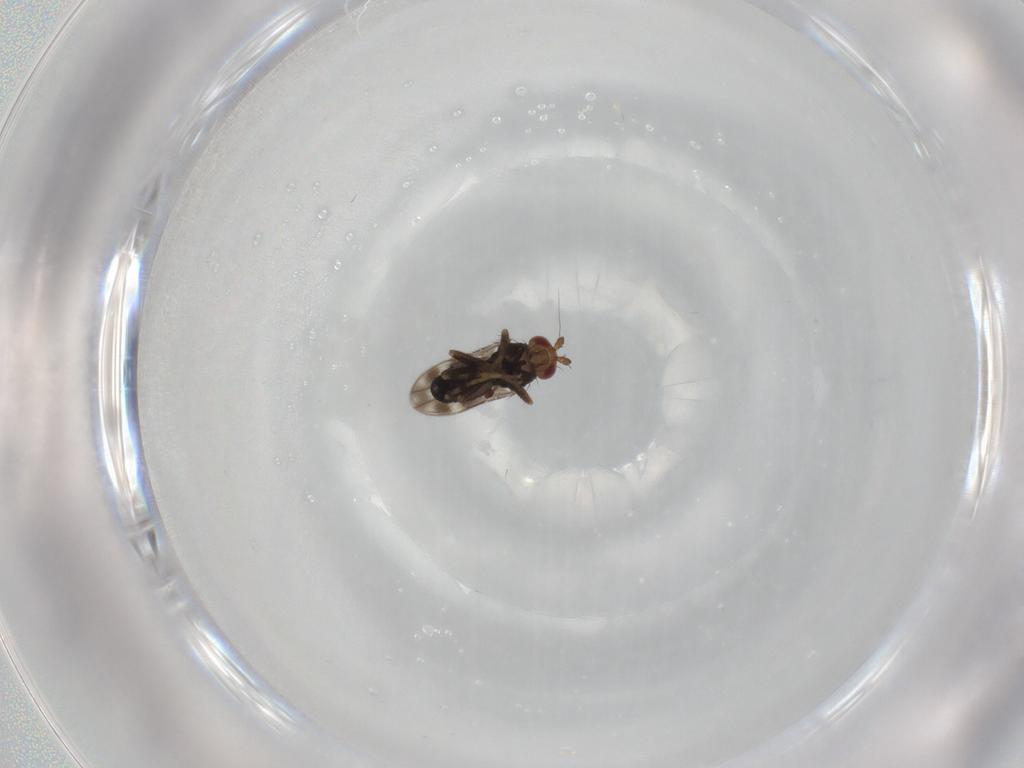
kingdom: Animalia
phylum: Arthropoda
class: Insecta
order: Diptera
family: Sphaeroceridae
